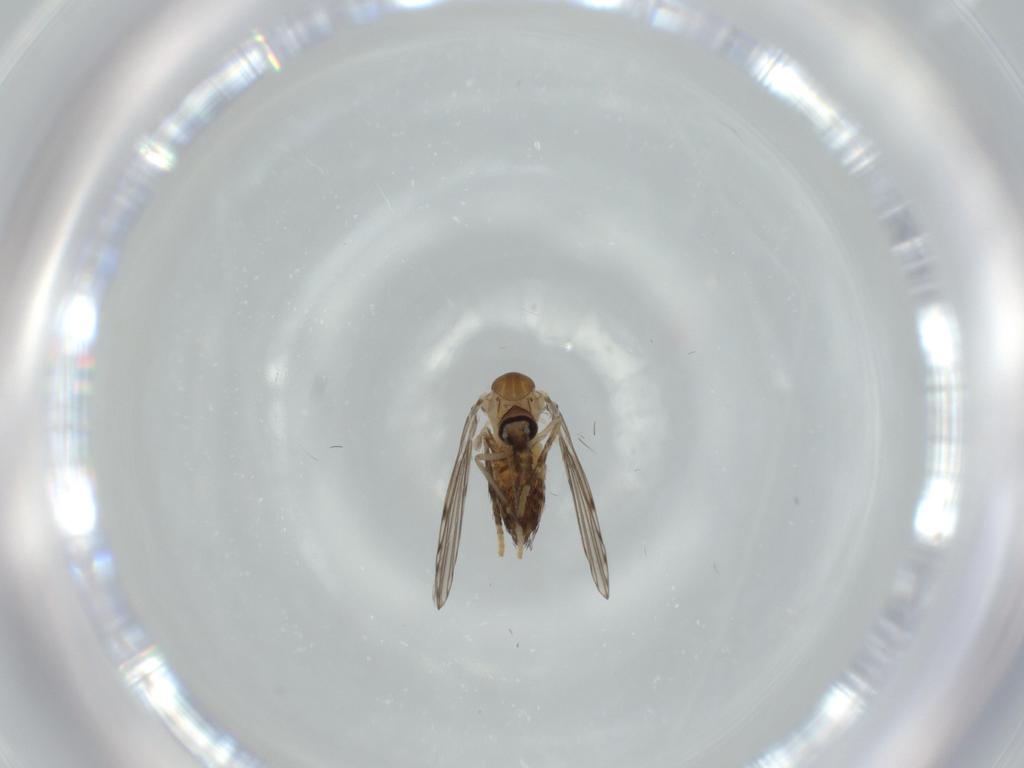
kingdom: Animalia
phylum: Arthropoda
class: Insecta
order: Diptera
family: Psychodidae
